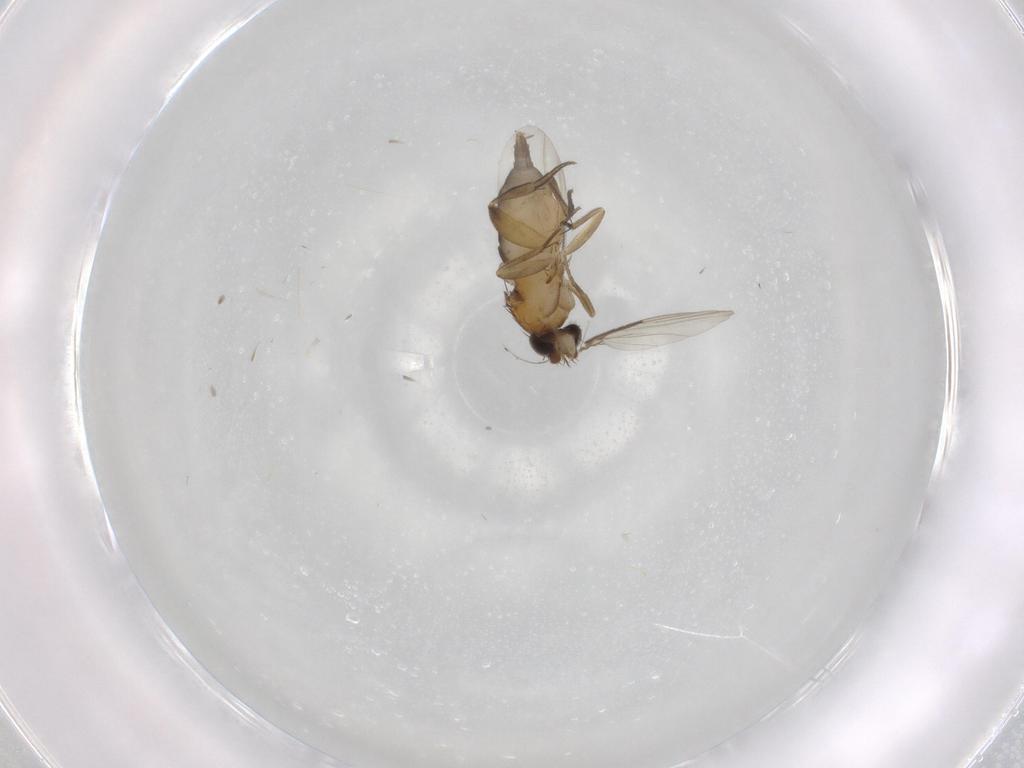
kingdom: Animalia
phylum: Arthropoda
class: Insecta
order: Diptera
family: Phoridae
